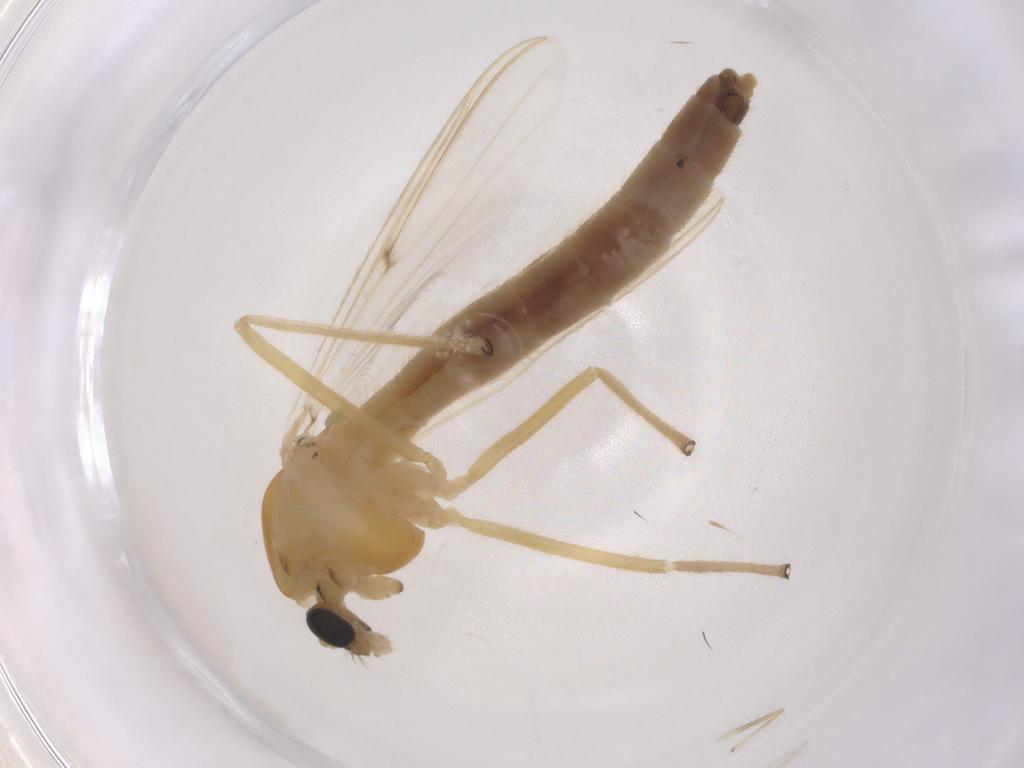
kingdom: Animalia
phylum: Arthropoda
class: Insecta
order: Diptera
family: Chironomidae
